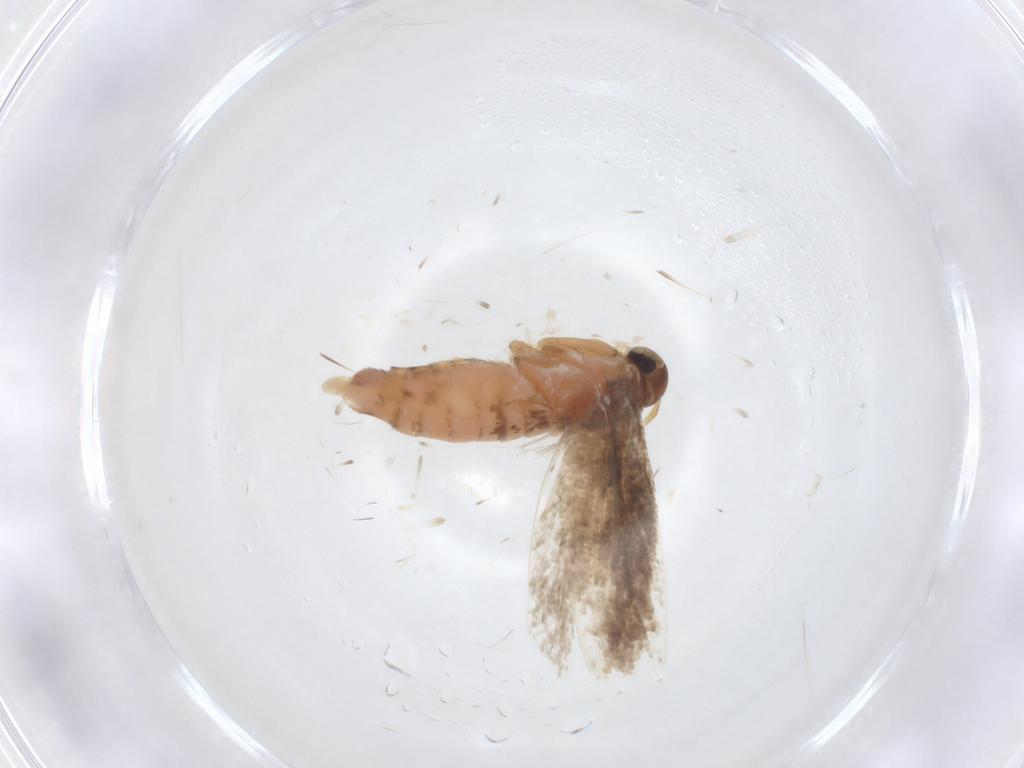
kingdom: Animalia
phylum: Arthropoda
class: Insecta
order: Lepidoptera
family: Gelechiidae
